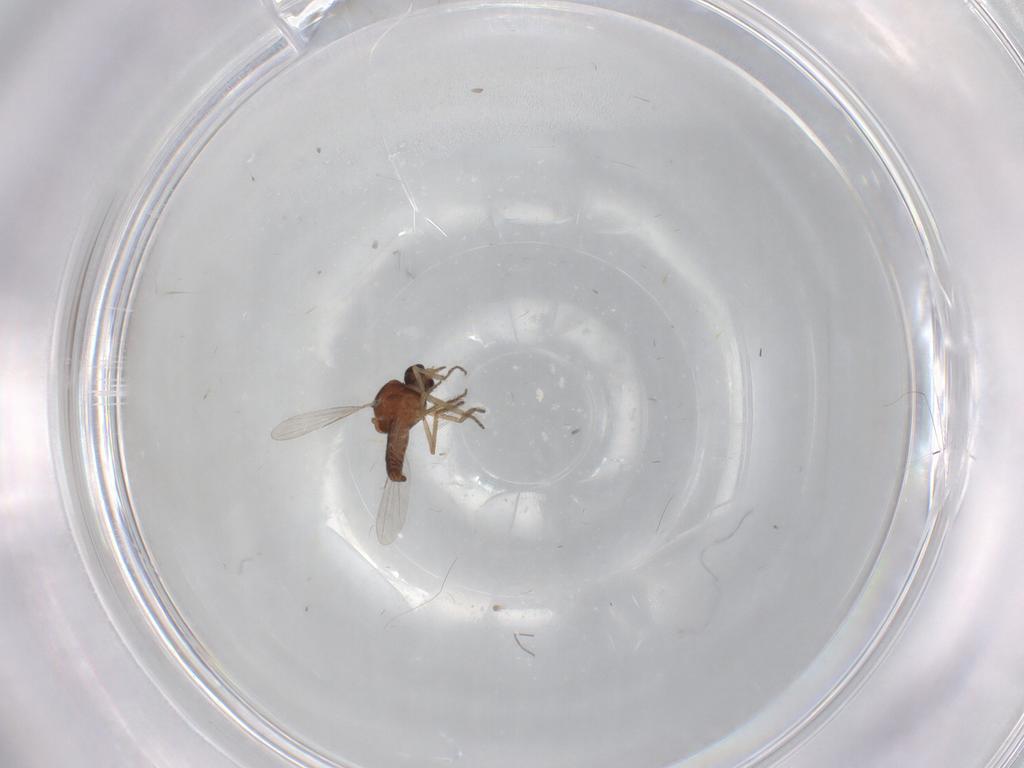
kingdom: Animalia
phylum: Arthropoda
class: Insecta
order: Diptera
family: Ceratopogonidae
